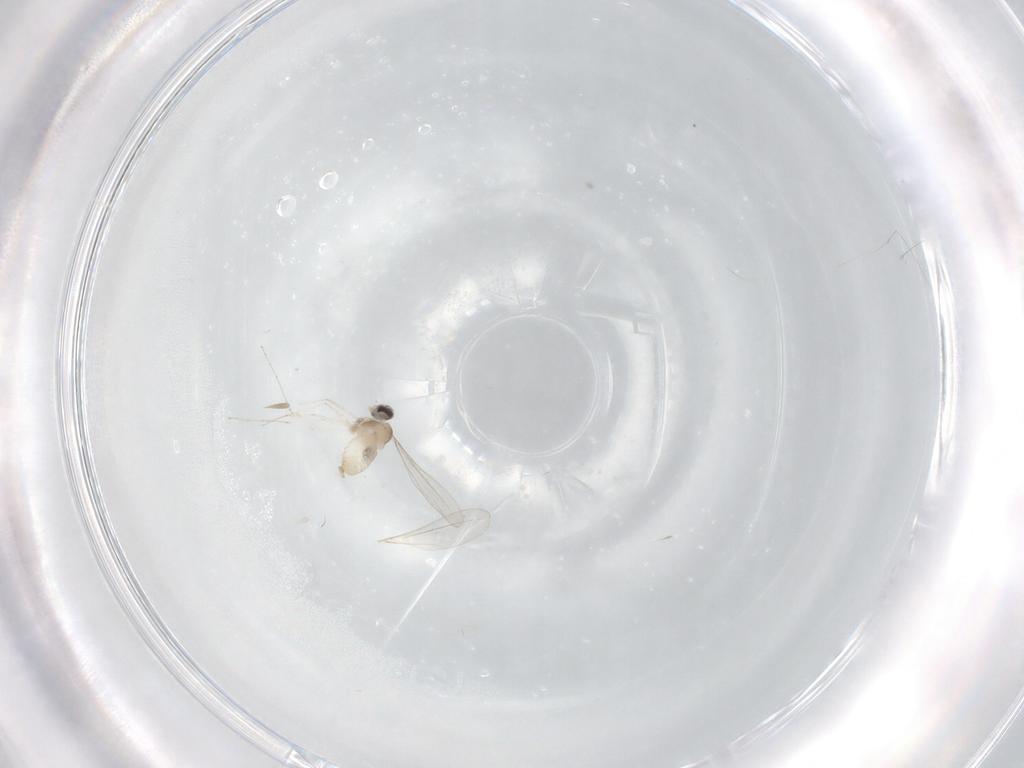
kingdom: Animalia
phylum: Arthropoda
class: Insecta
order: Diptera
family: Cecidomyiidae
